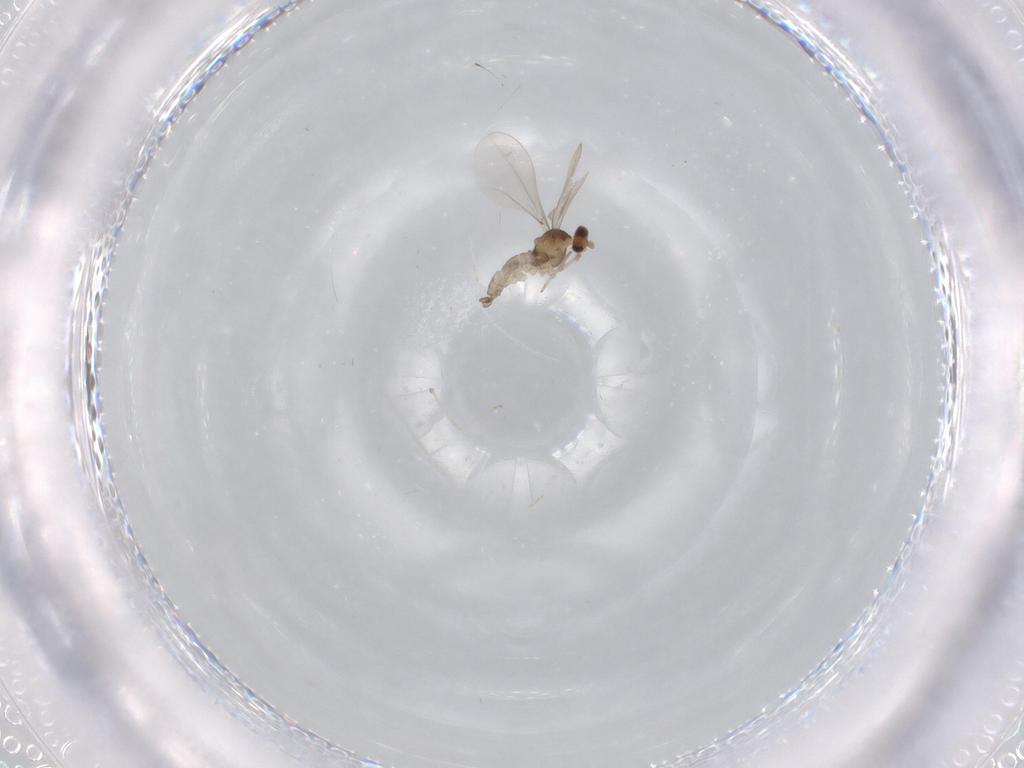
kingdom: Animalia
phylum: Arthropoda
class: Insecta
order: Diptera
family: Cecidomyiidae
